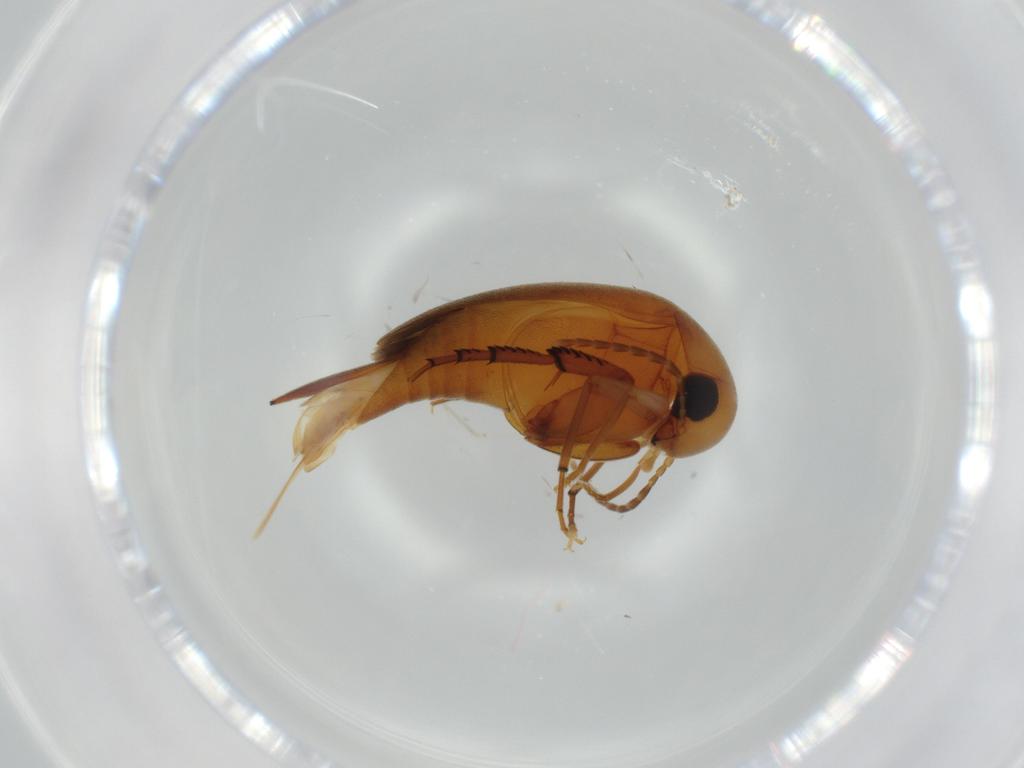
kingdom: Animalia
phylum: Arthropoda
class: Insecta
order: Coleoptera
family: Mordellidae
